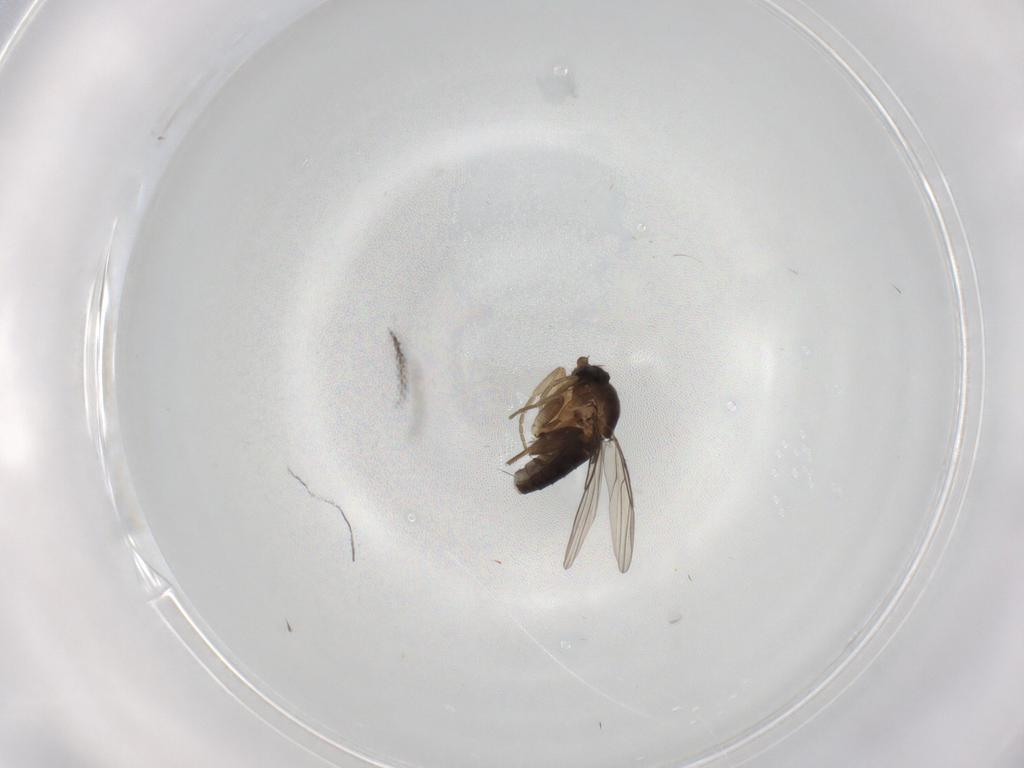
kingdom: Animalia
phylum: Arthropoda
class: Insecta
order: Diptera
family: Phoridae
